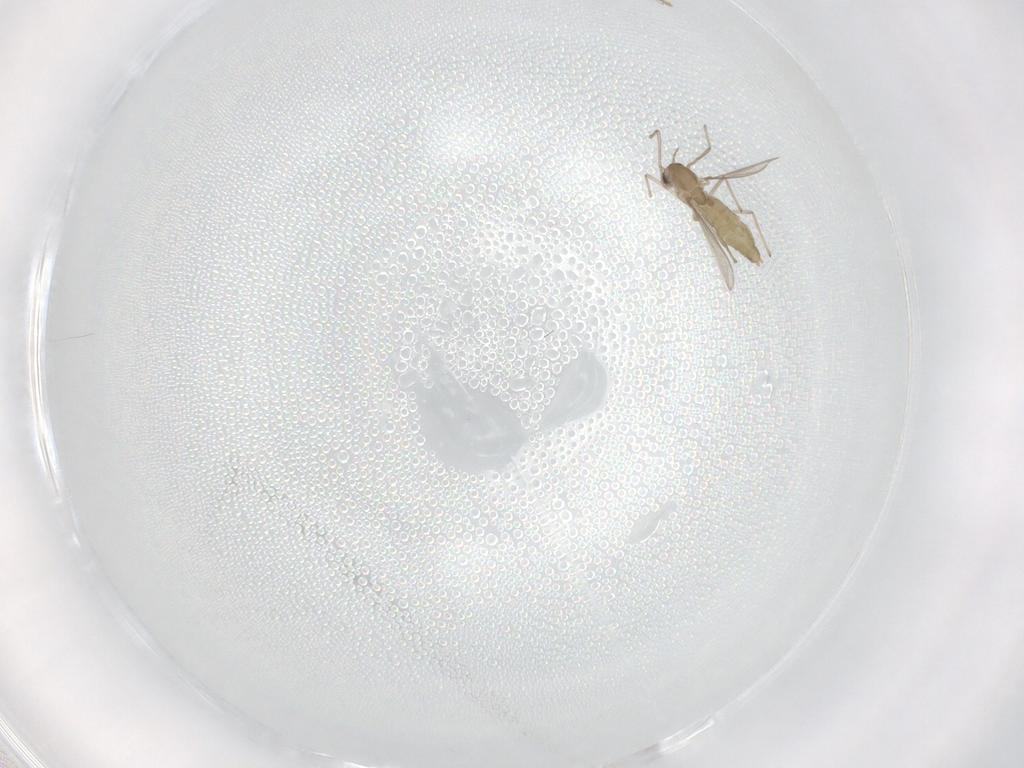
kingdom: Animalia
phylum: Arthropoda
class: Insecta
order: Diptera
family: Chironomidae
